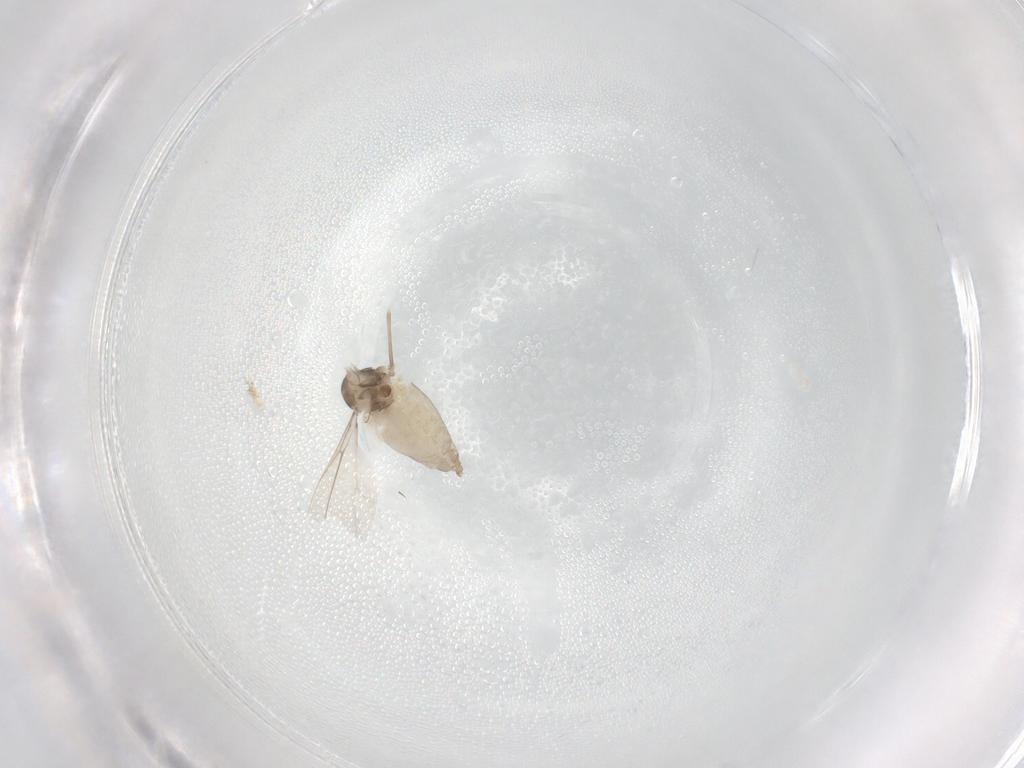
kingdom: Animalia
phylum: Arthropoda
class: Insecta
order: Diptera
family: Cecidomyiidae
